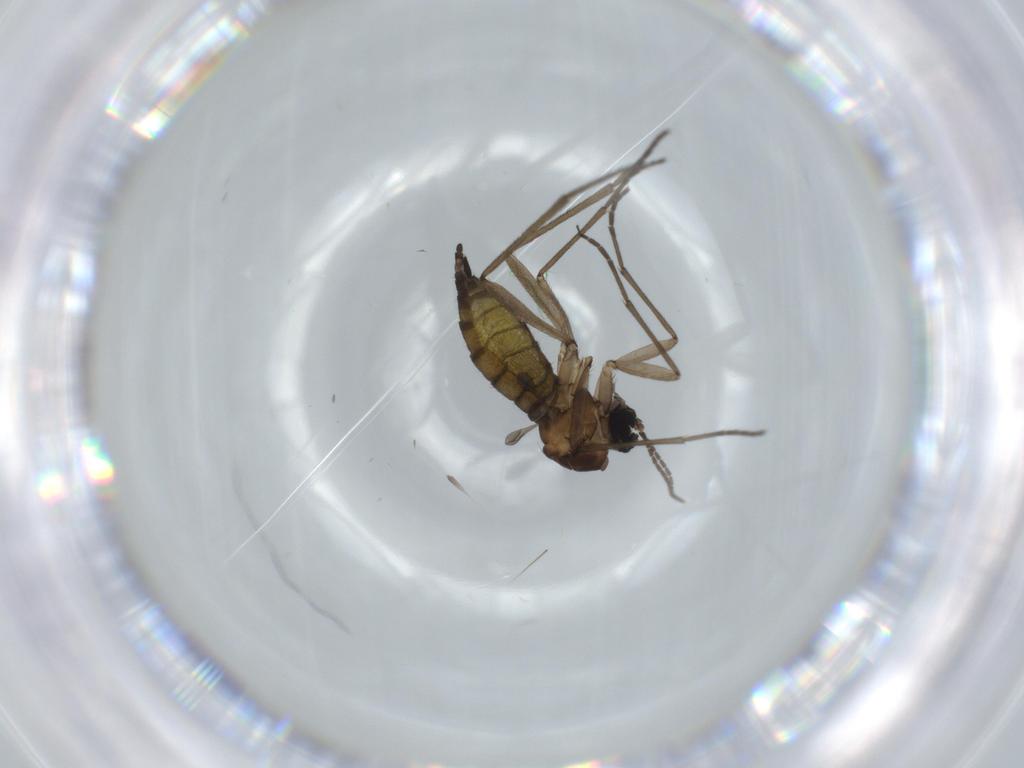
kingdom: Animalia
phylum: Arthropoda
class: Insecta
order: Diptera
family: Sciaridae
